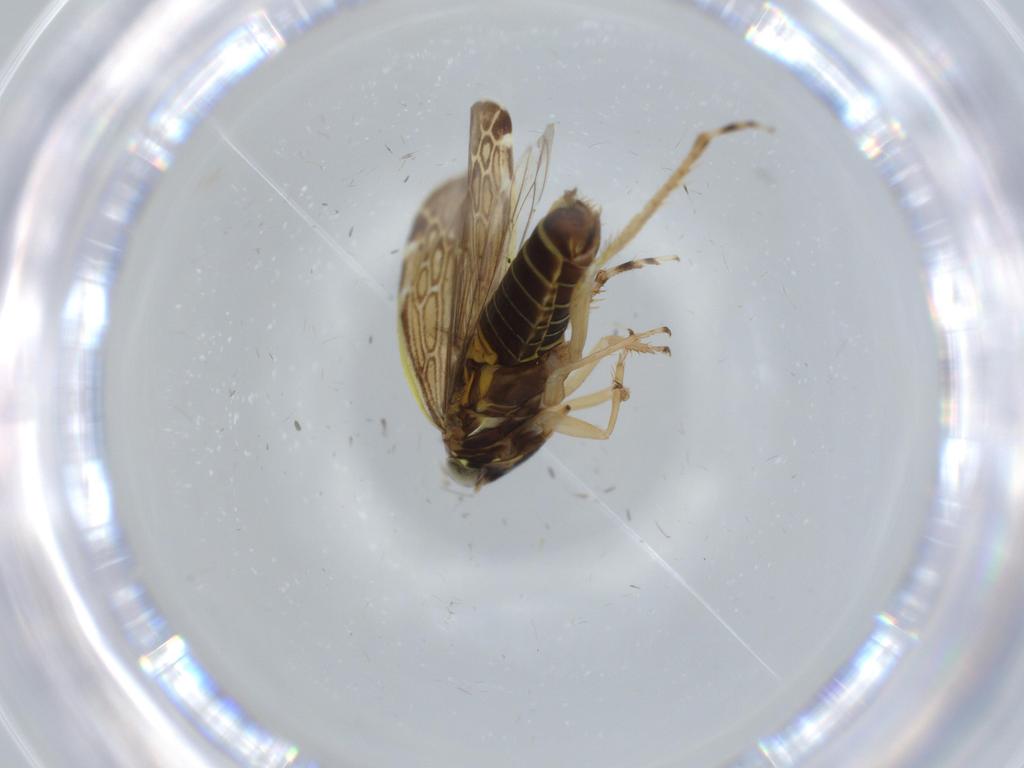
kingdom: Animalia
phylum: Arthropoda
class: Insecta
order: Hemiptera
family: Cicadellidae
